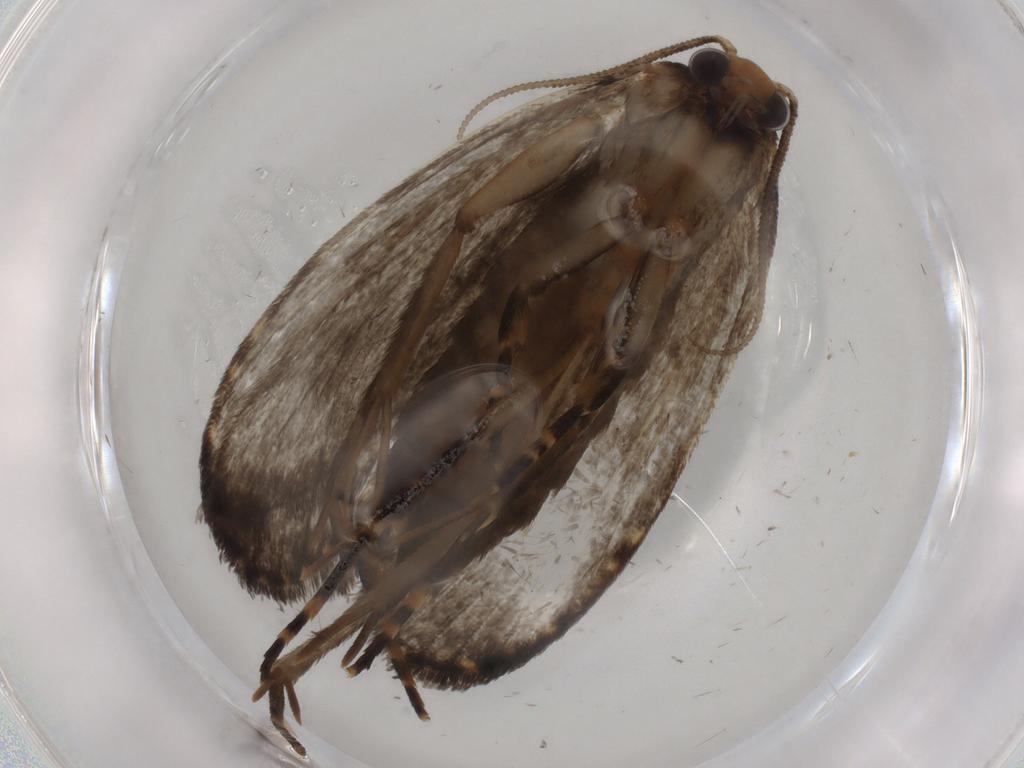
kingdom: Animalia
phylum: Arthropoda
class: Insecta
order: Lepidoptera
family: Tineidae
